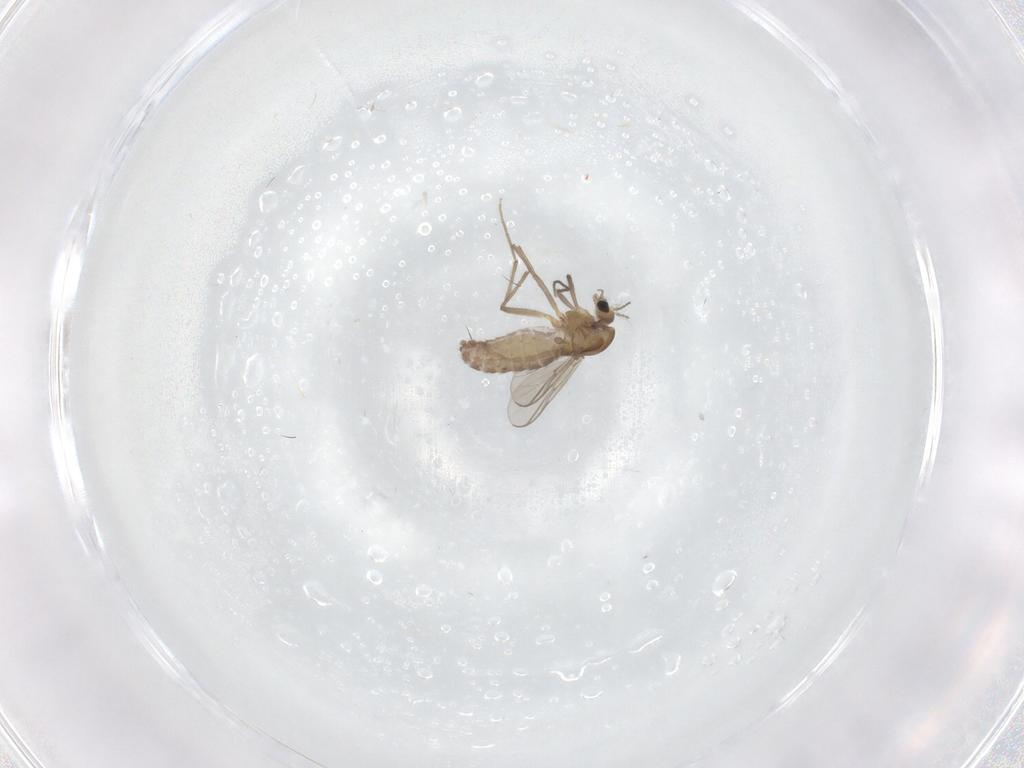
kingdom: Animalia
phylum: Arthropoda
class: Insecta
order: Diptera
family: Chironomidae
